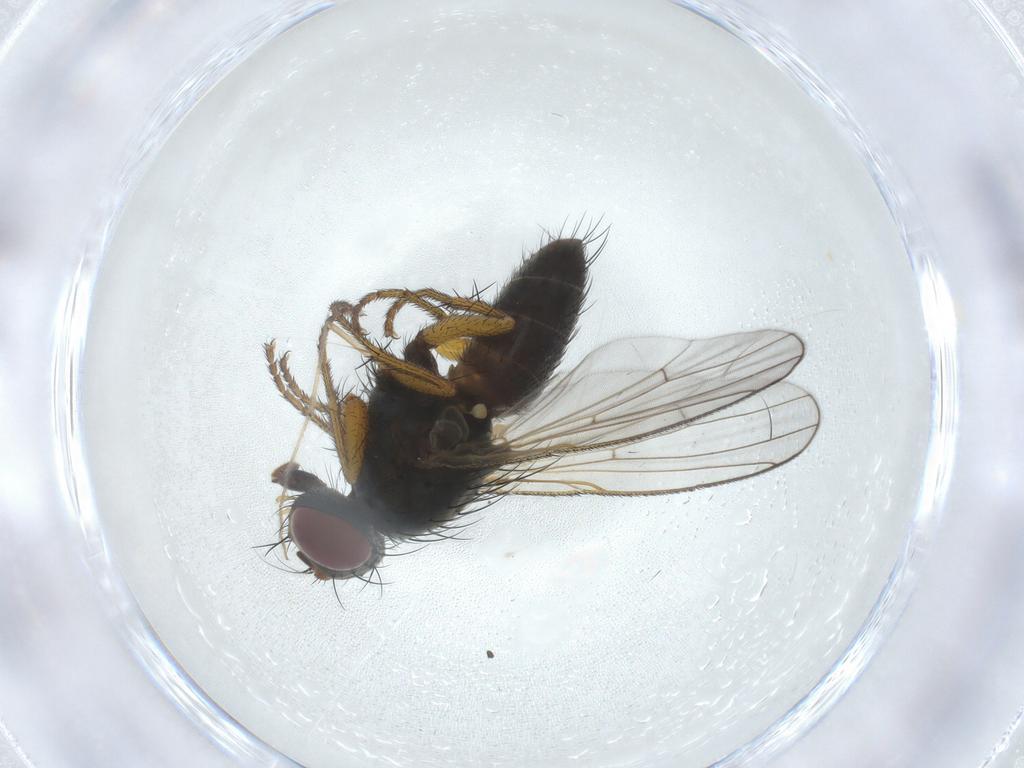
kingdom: Animalia
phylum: Arthropoda
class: Insecta
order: Diptera
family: Muscidae
